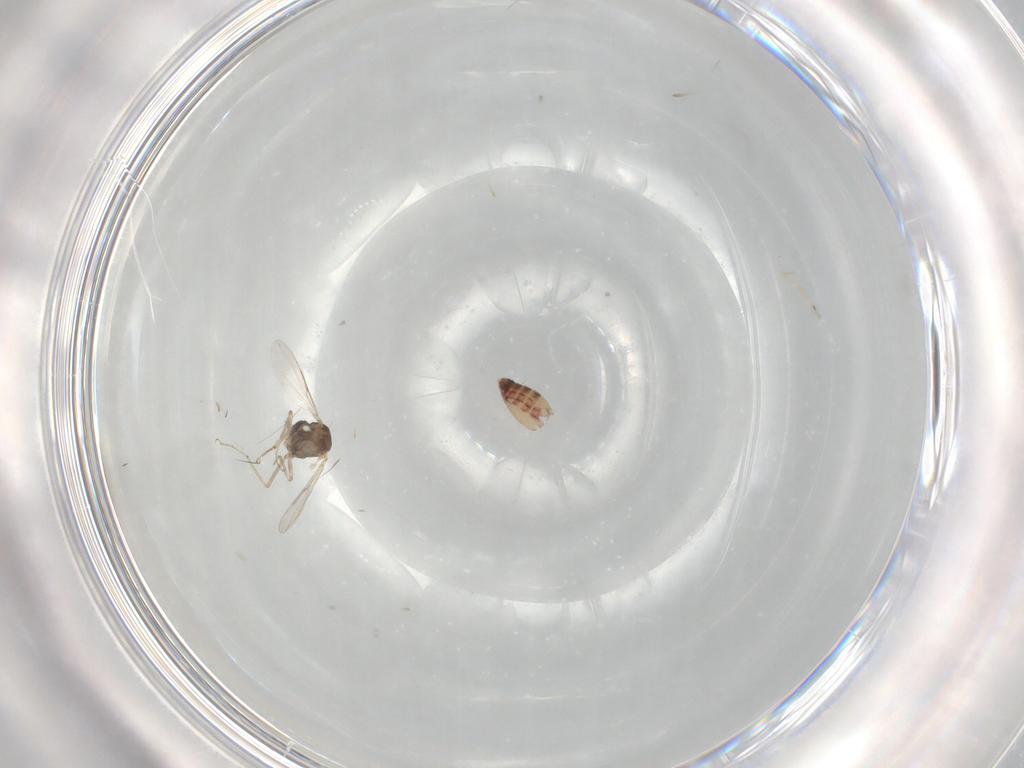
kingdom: Animalia
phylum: Arthropoda
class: Insecta
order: Diptera
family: Ceratopogonidae
